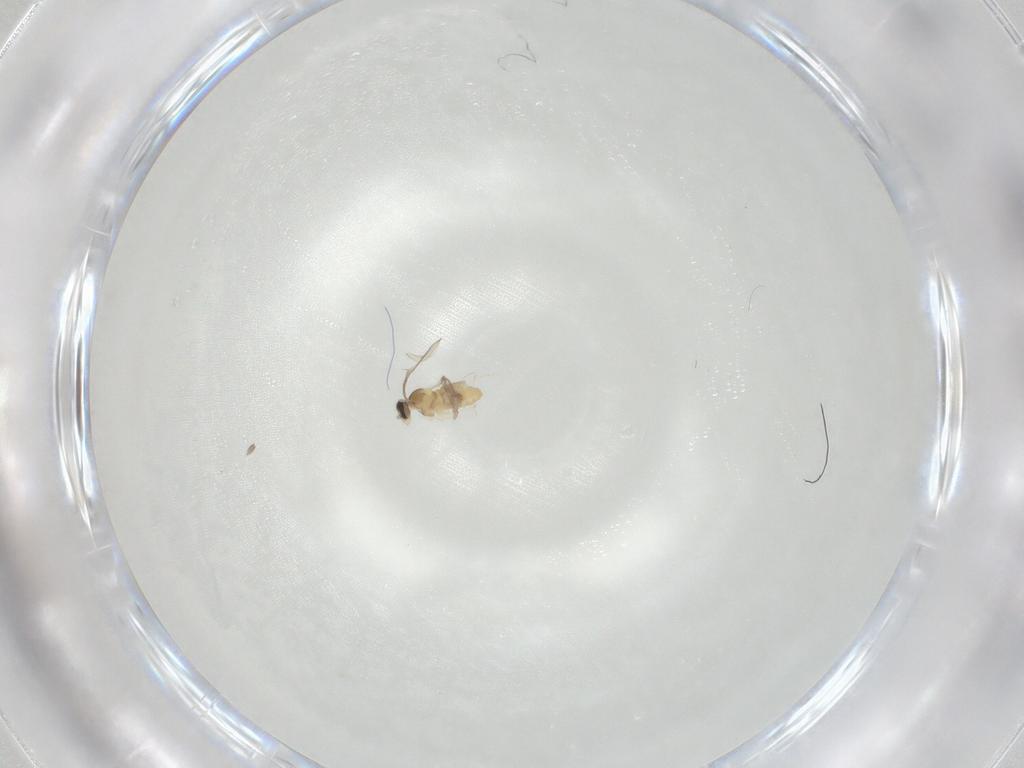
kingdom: Animalia
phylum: Arthropoda
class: Insecta
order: Diptera
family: Cecidomyiidae
